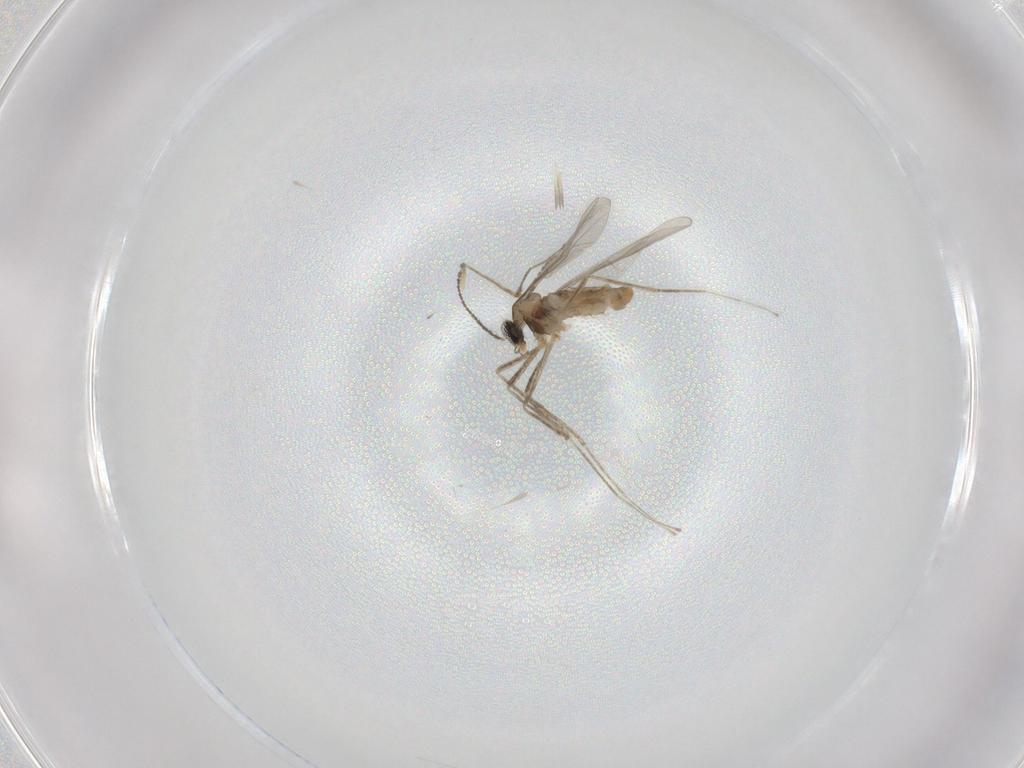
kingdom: Animalia
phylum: Arthropoda
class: Insecta
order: Diptera
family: Cecidomyiidae
